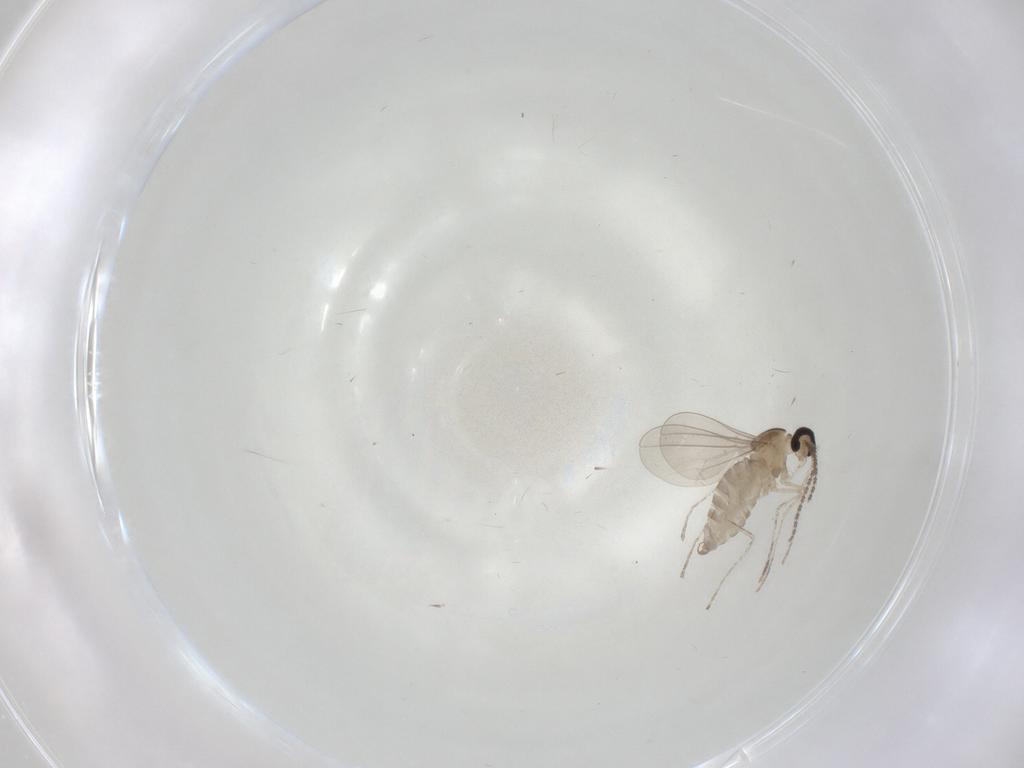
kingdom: Animalia
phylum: Arthropoda
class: Insecta
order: Diptera
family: Cecidomyiidae
